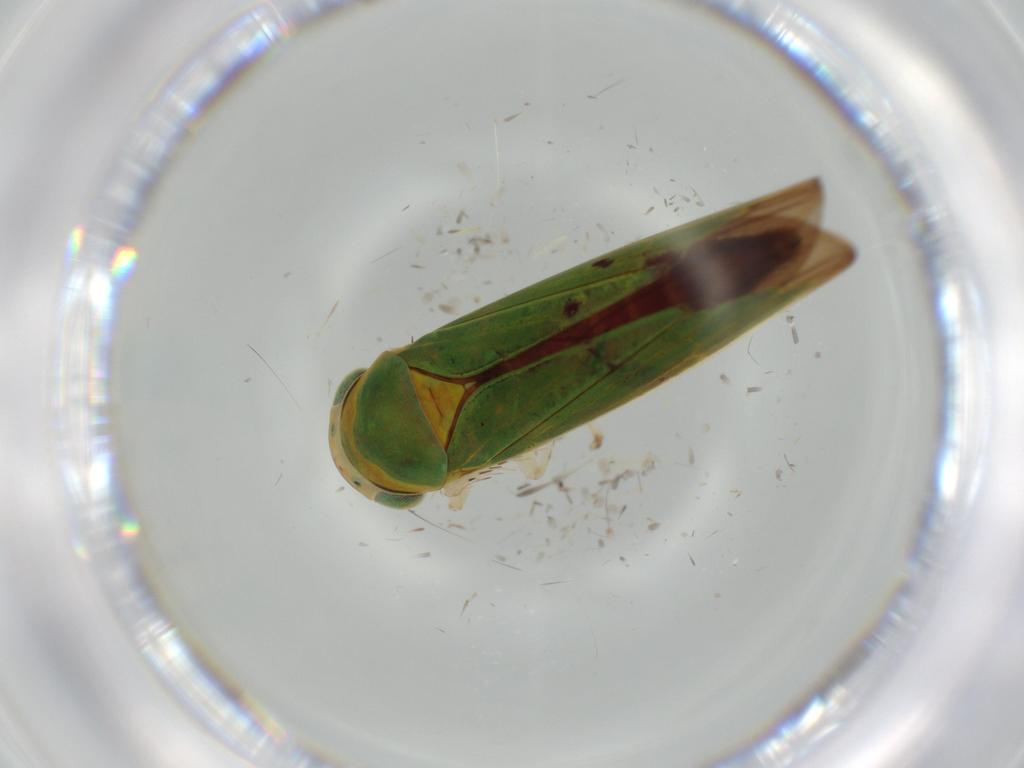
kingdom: Animalia
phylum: Arthropoda
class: Insecta
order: Hemiptera
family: Cicadellidae
